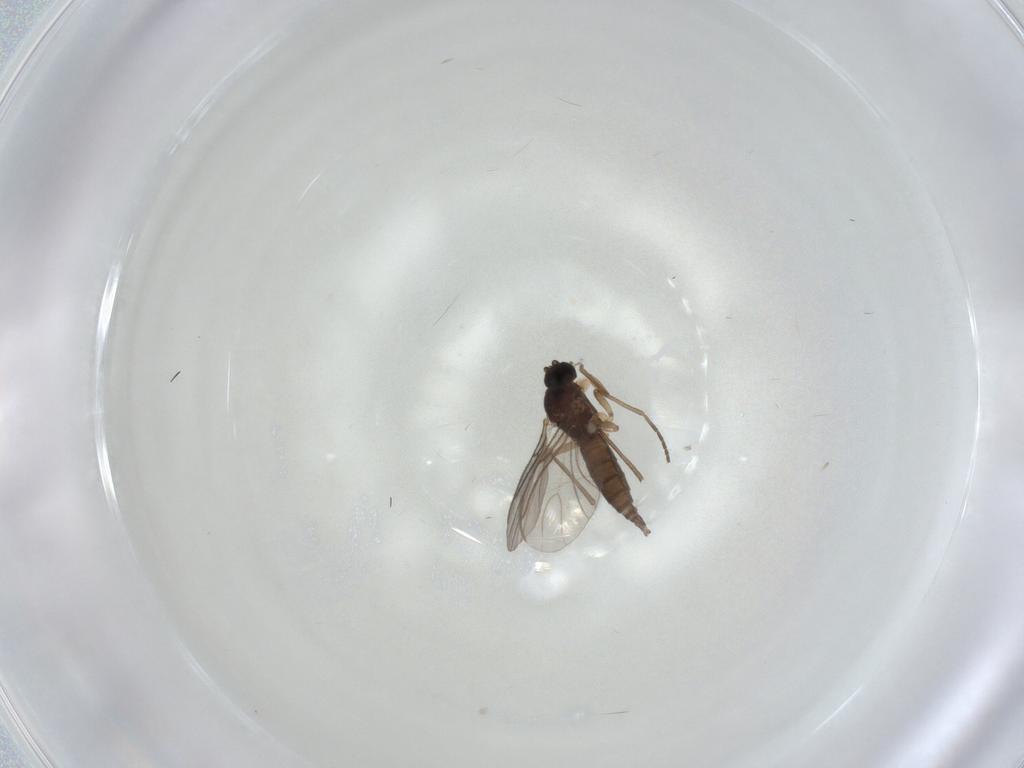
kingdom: Animalia
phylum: Arthropoda
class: Insecta
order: Diptera
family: Sciaridae
